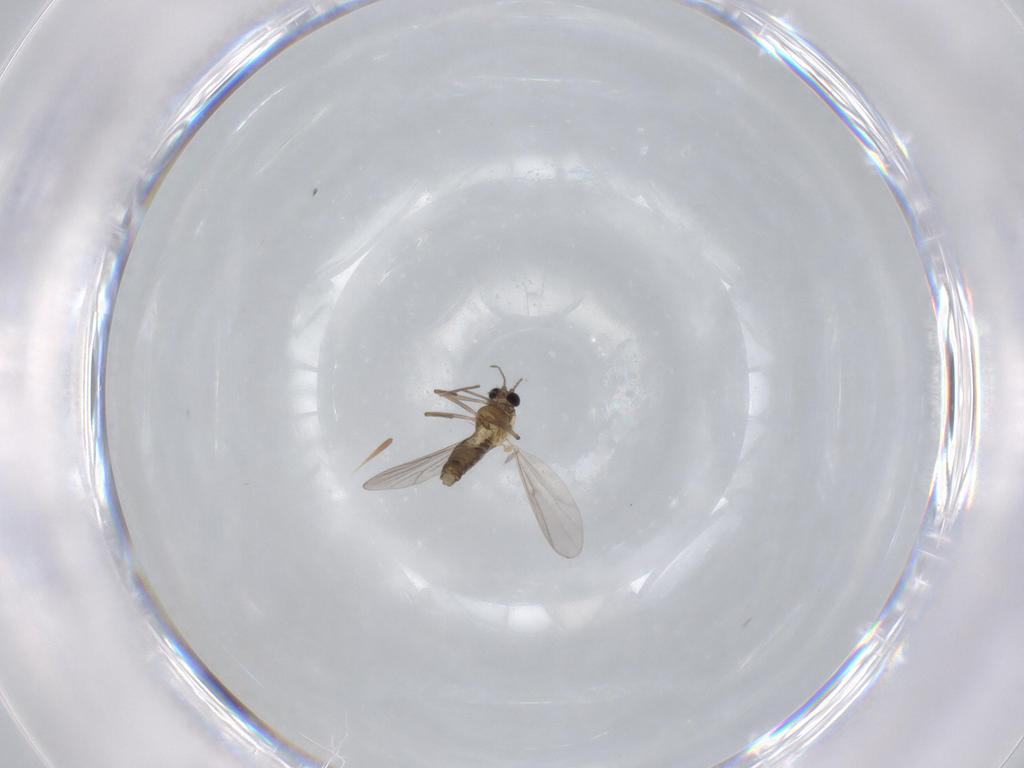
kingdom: Animalia
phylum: Arthropoda
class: Insecta
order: Diptera
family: Chironomidae
